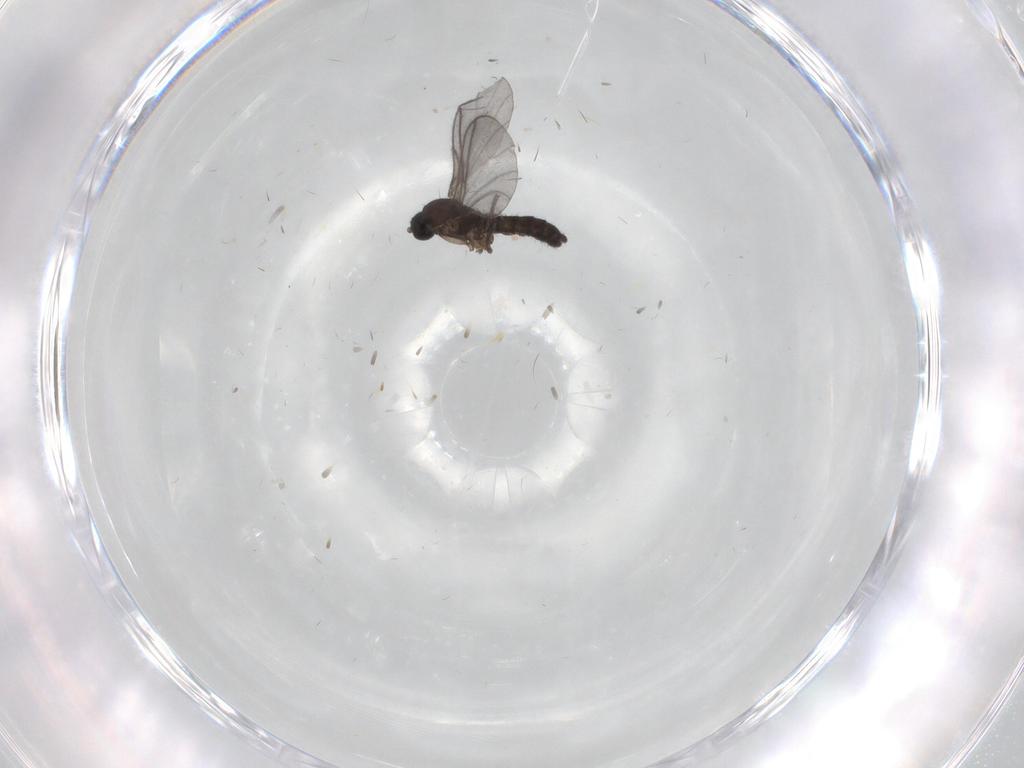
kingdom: Animalia
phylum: Arthropoda
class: Insecta
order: Diptera
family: Sciaridae
